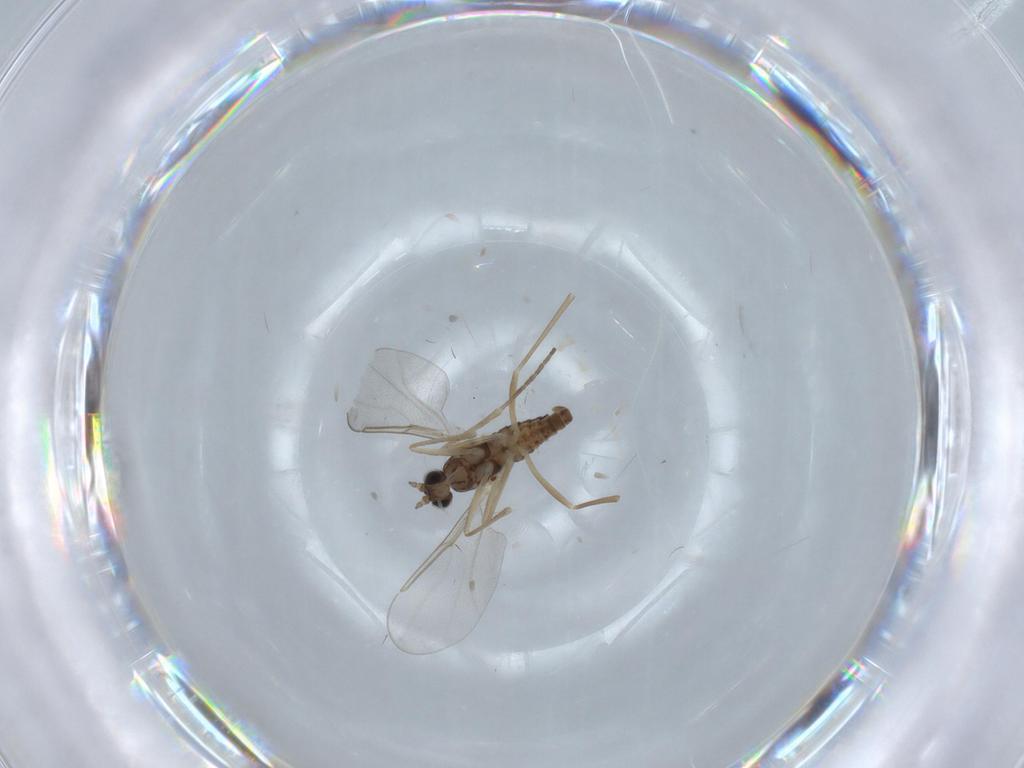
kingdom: Animalia
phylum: Arthropoda
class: Insecta
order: Diptera
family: Cecidomyiidae
